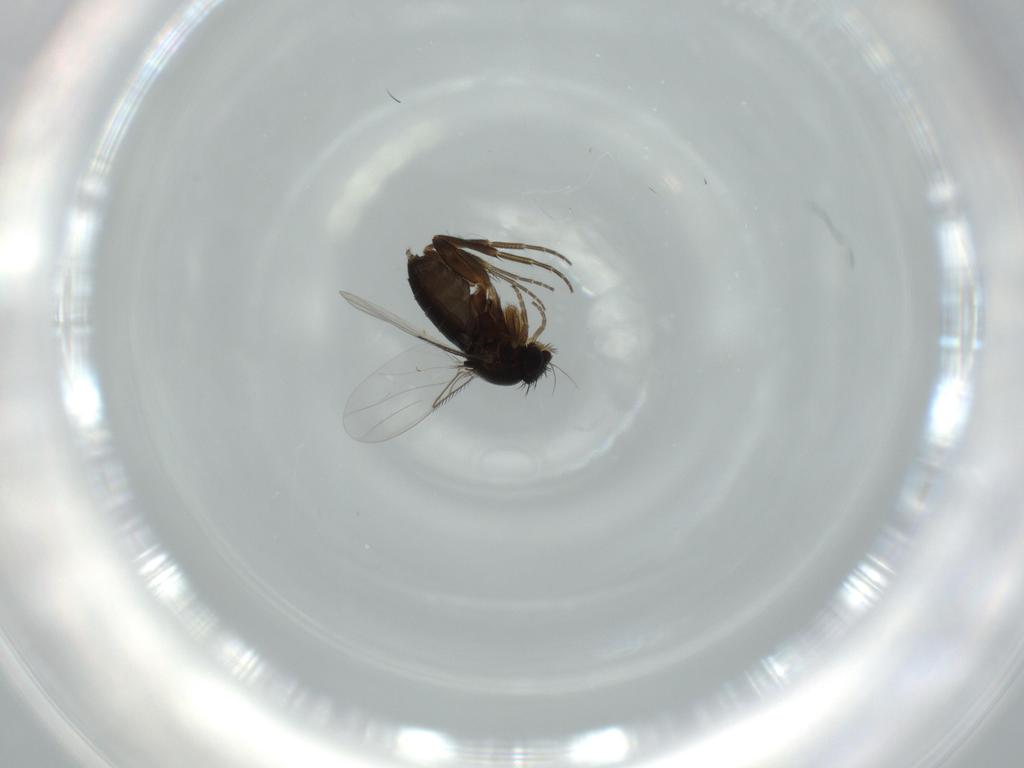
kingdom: Animalia
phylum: Arthropoda
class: Insecta
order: Diptera
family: Phoridae
